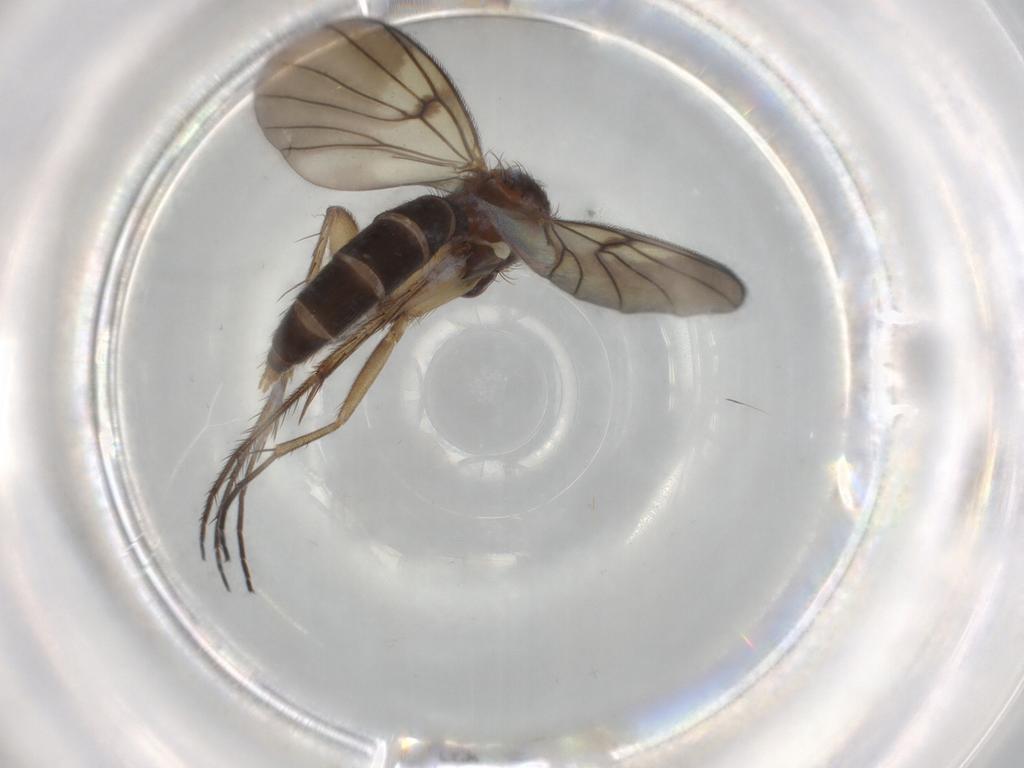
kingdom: Animalia
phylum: Arthropoda
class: Insecta
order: Diptera
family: Mycetophilidae
